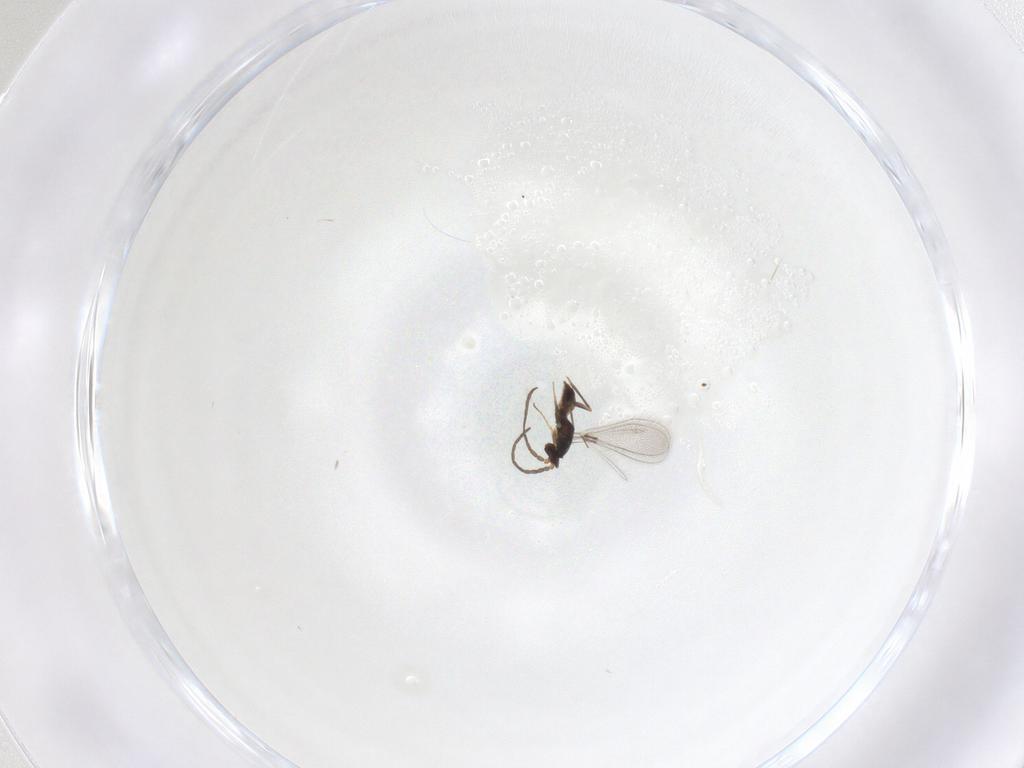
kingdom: Animalia
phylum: Arthropoda
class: Insecta
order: Hymenoptera
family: Mymaridae
